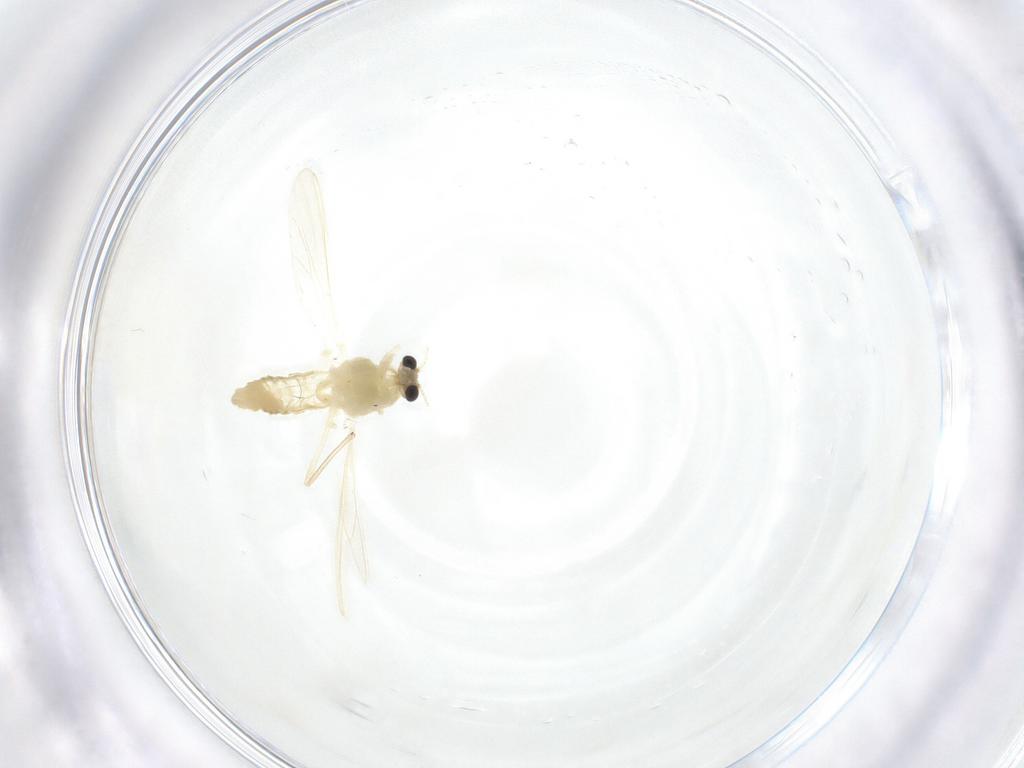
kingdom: Animalia
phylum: Arthropoda
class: Insecta
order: Diptera
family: Chironomidae
